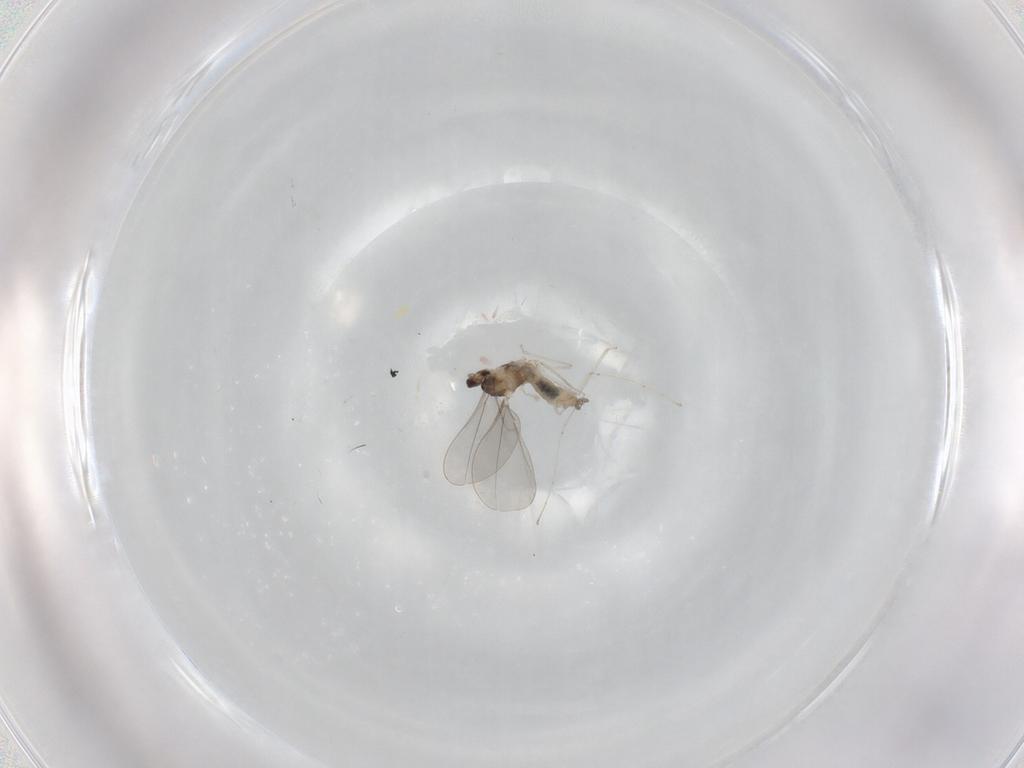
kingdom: Animalia
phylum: Arthropoda
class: Insecta
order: Diptera
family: Cecidomyiidae
